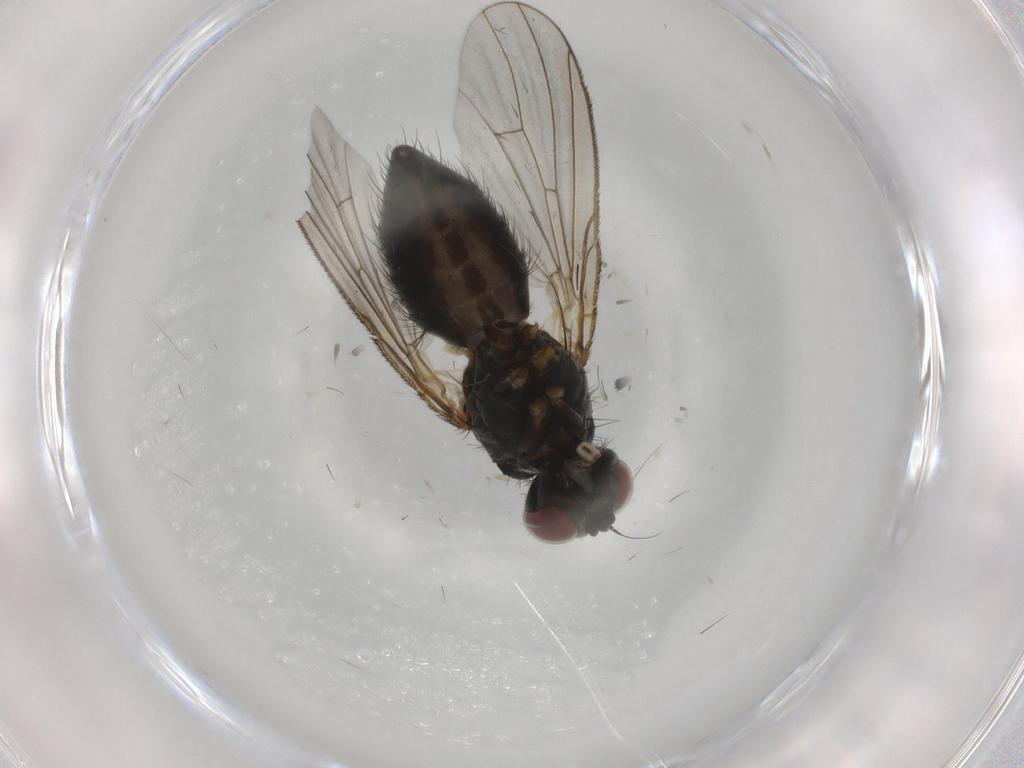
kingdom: Animalia
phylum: Arthropoda
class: Insecta
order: Diptera
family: Muscidae
